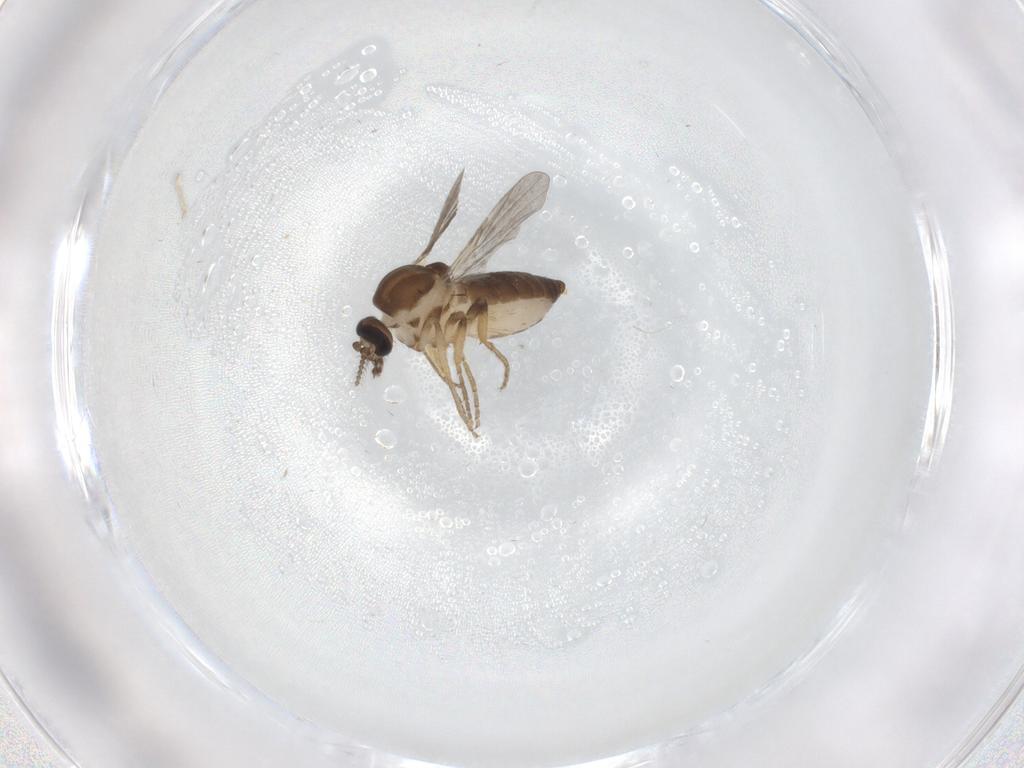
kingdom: Animalia
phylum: Arthropoda
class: Insecta
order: Diptera
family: Ceratopogonidae
